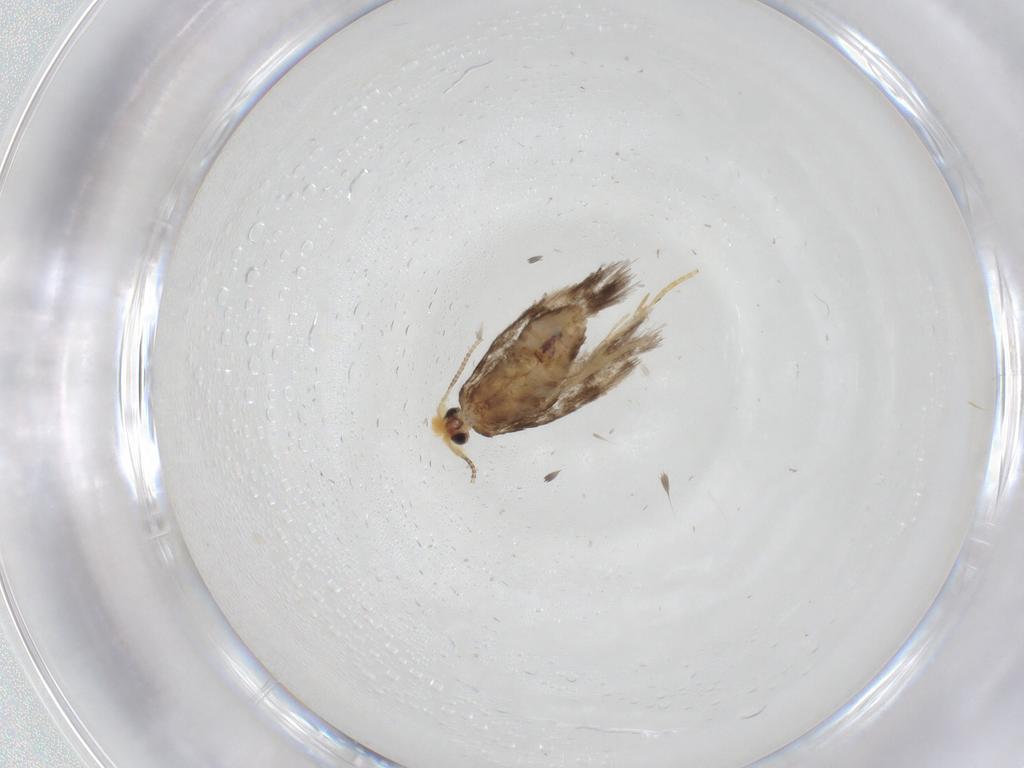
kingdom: Animalia
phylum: Arthropoda
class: Insecta
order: Lepidoptera
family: Nepticulidae
